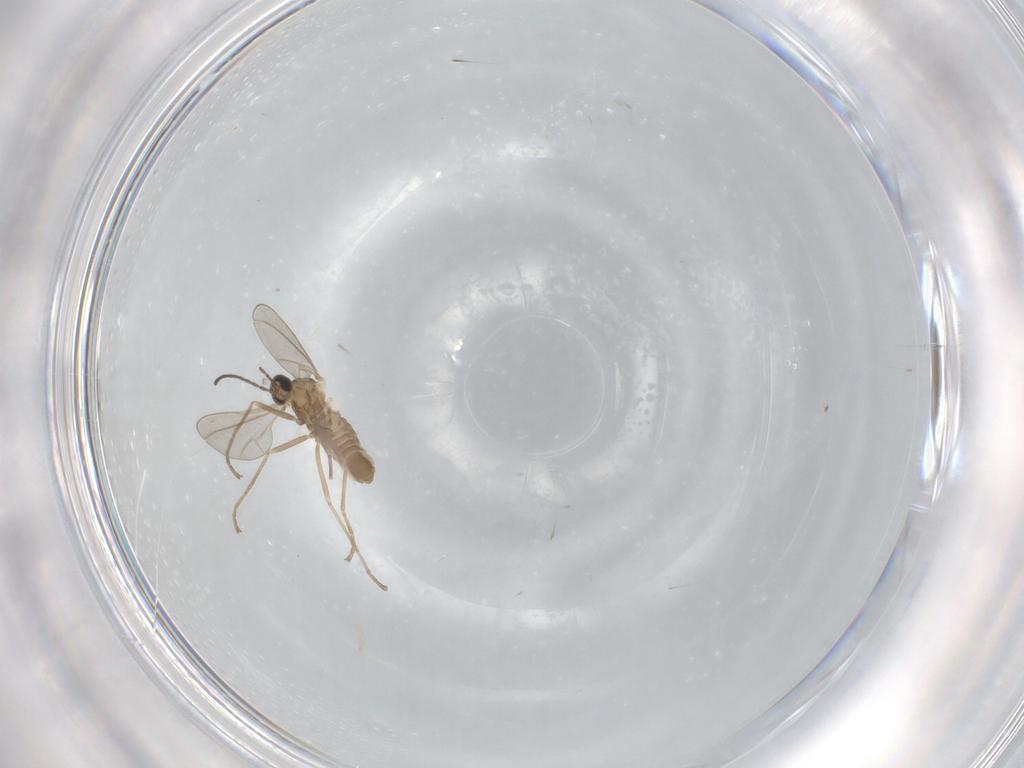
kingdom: Animalia
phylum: Arthropoda
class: Insecta
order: Diptera
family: Cecidomyiidae
